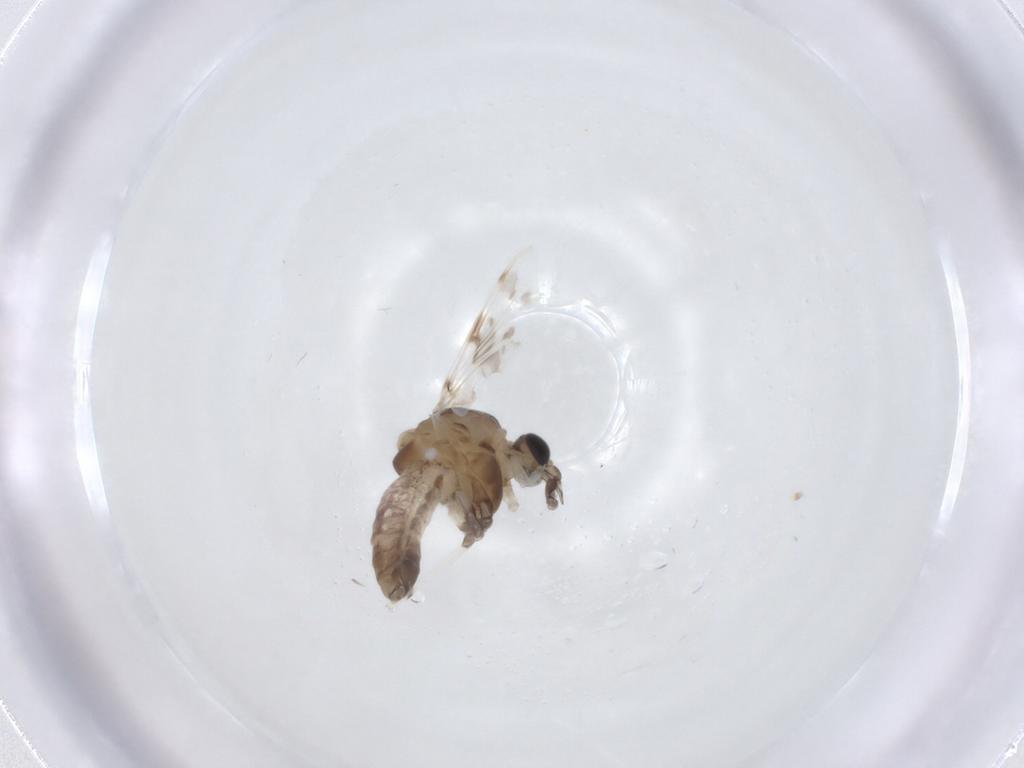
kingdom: Animalia
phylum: Arthropoda
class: Insecta
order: Diptera
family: Chironomidae
